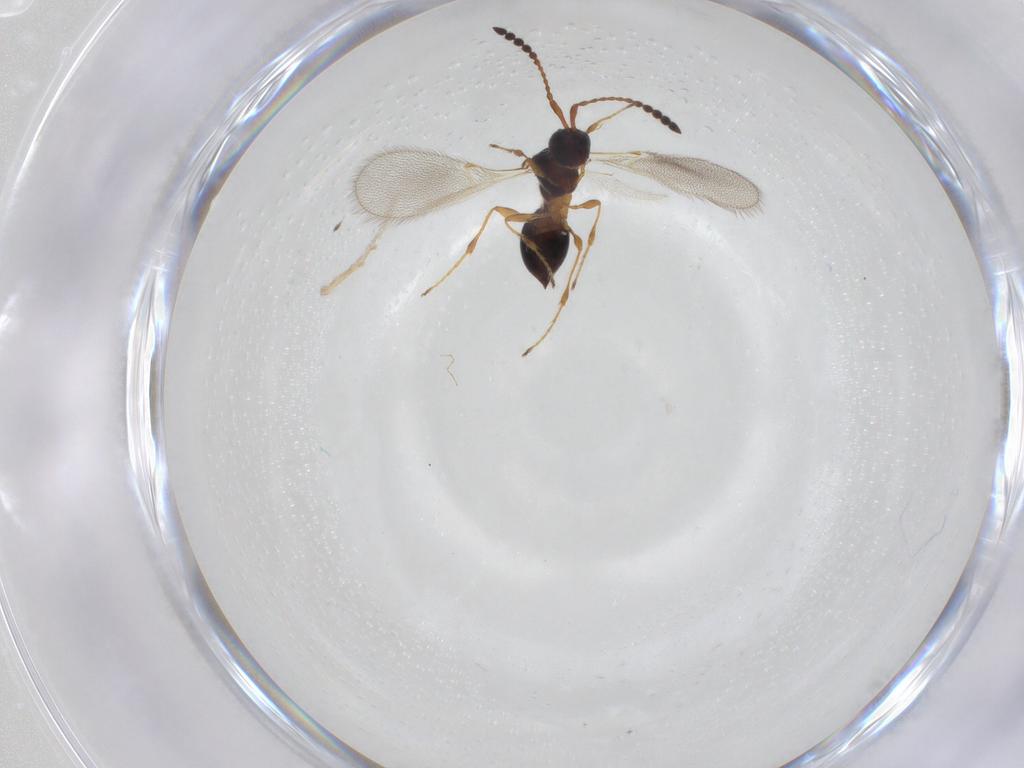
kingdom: Animalia
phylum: Arthropoda
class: Insecta
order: Hymenoptera
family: Diapriidae
